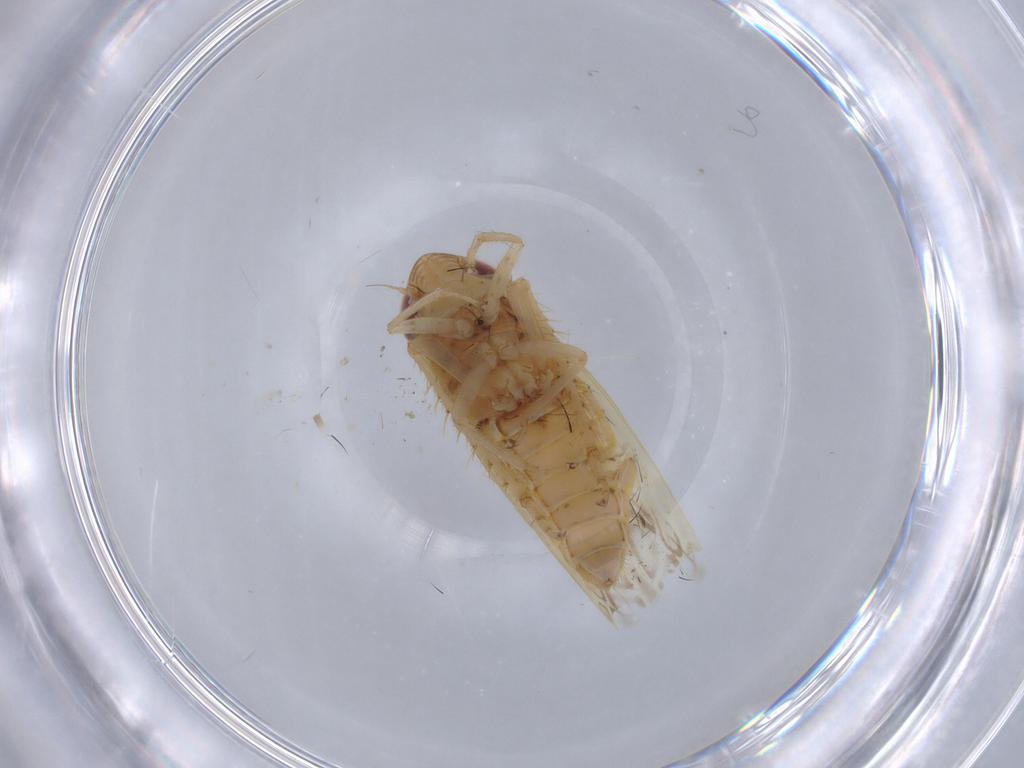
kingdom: Animalia
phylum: Arthropoda
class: Insecta
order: Hemiptera
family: Cicadellidae
